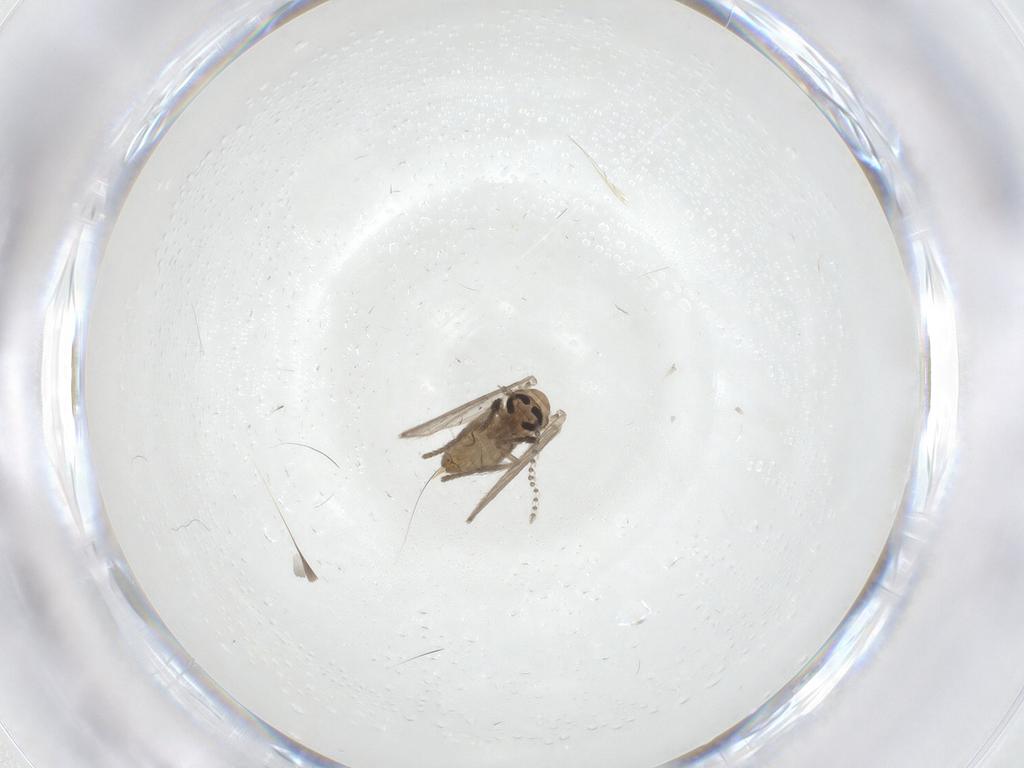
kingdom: Animalia
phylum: Arthropoda
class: Insecta
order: Diptera
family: Psychodidae
